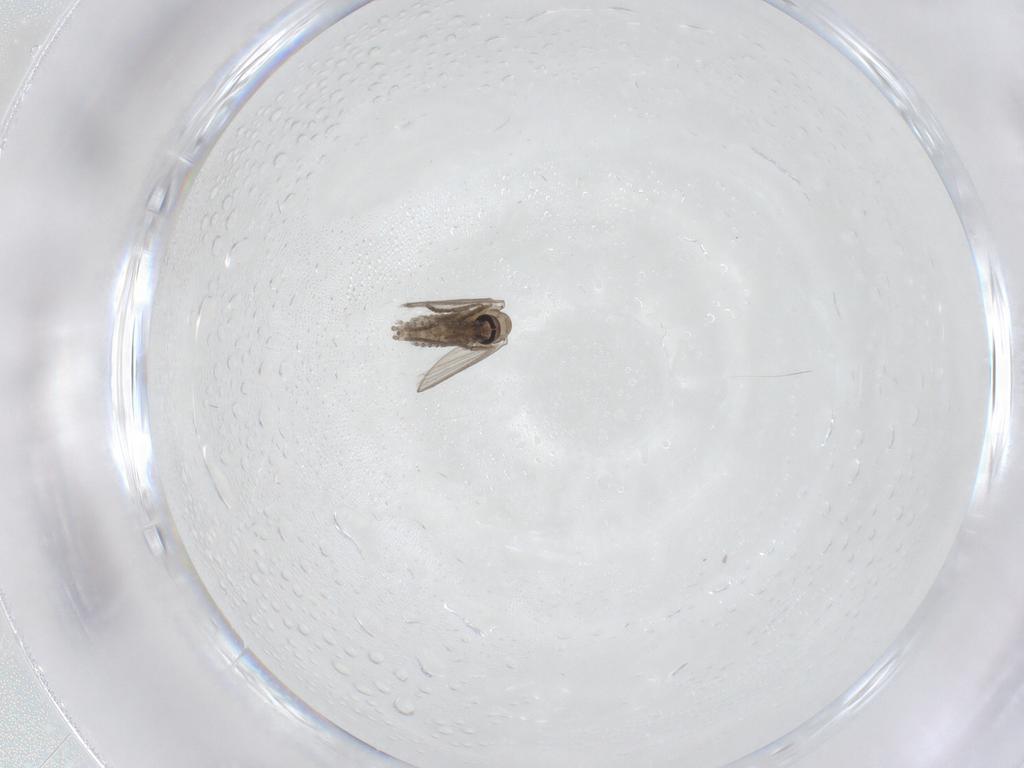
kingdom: Animalia
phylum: Arthropoda
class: Insecta
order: Diptera
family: Psychodidae
